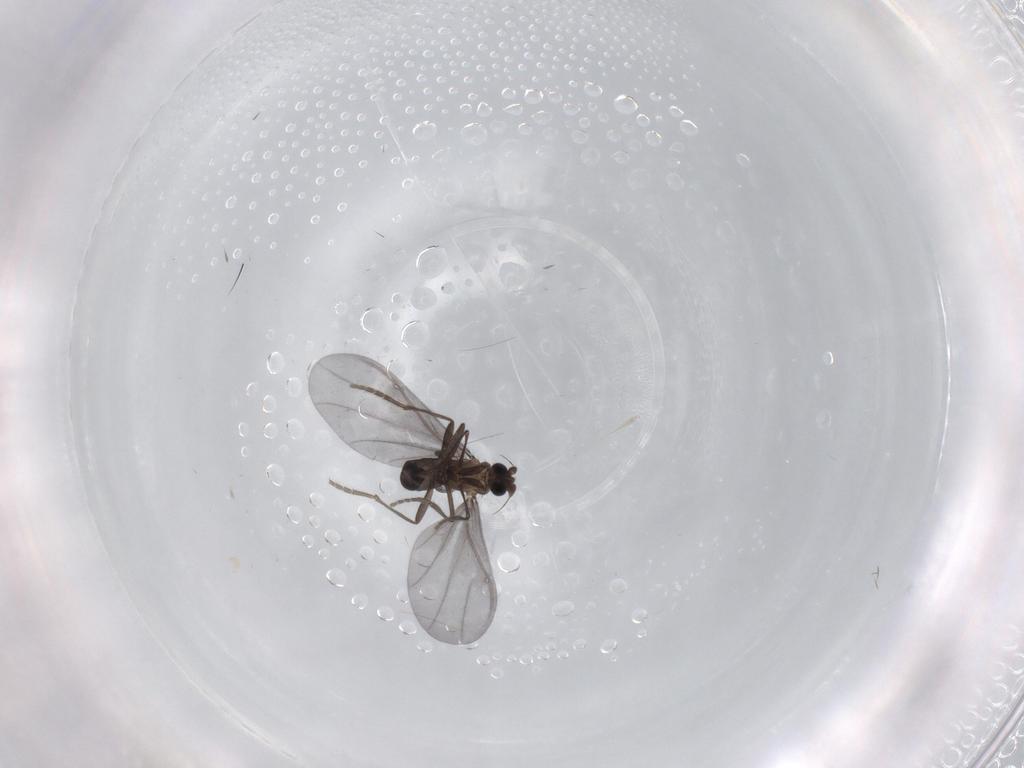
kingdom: Animalia
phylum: Arthropoda
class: Insecta
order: Diptera
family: Phoridae
